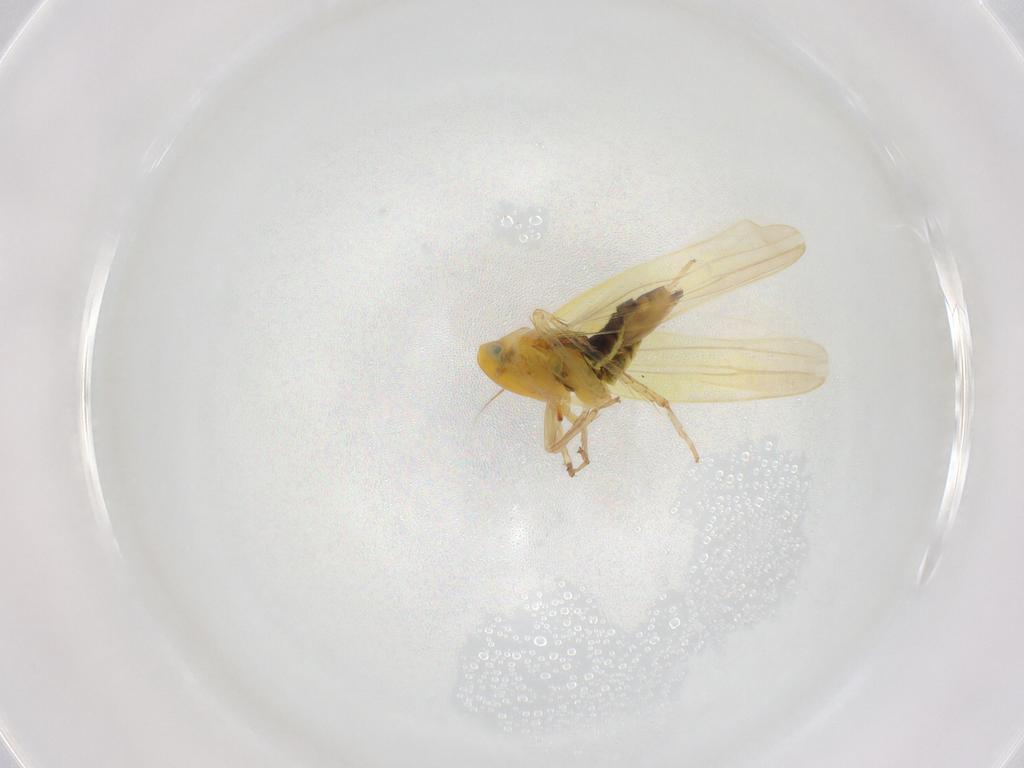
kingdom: Animalia
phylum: Arthropoda
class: Insecta
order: Hemiptera
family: Cicadellidae
